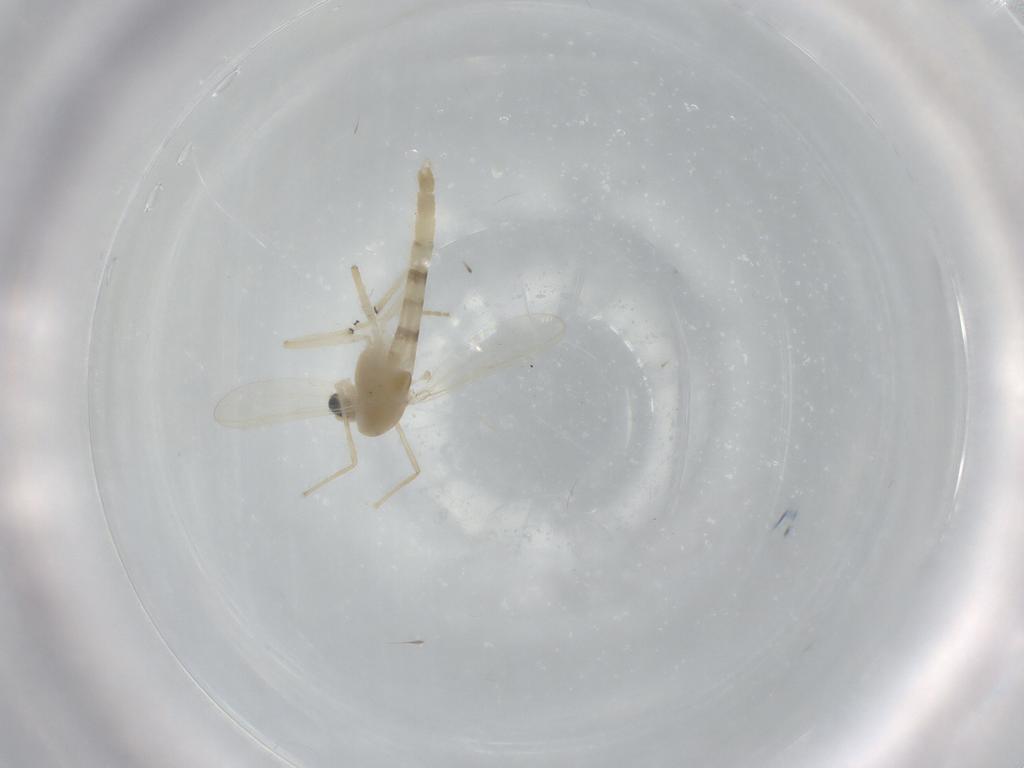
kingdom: Animalia
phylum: Arthropoda
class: Insecta
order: Diptera
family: Chironomidae
